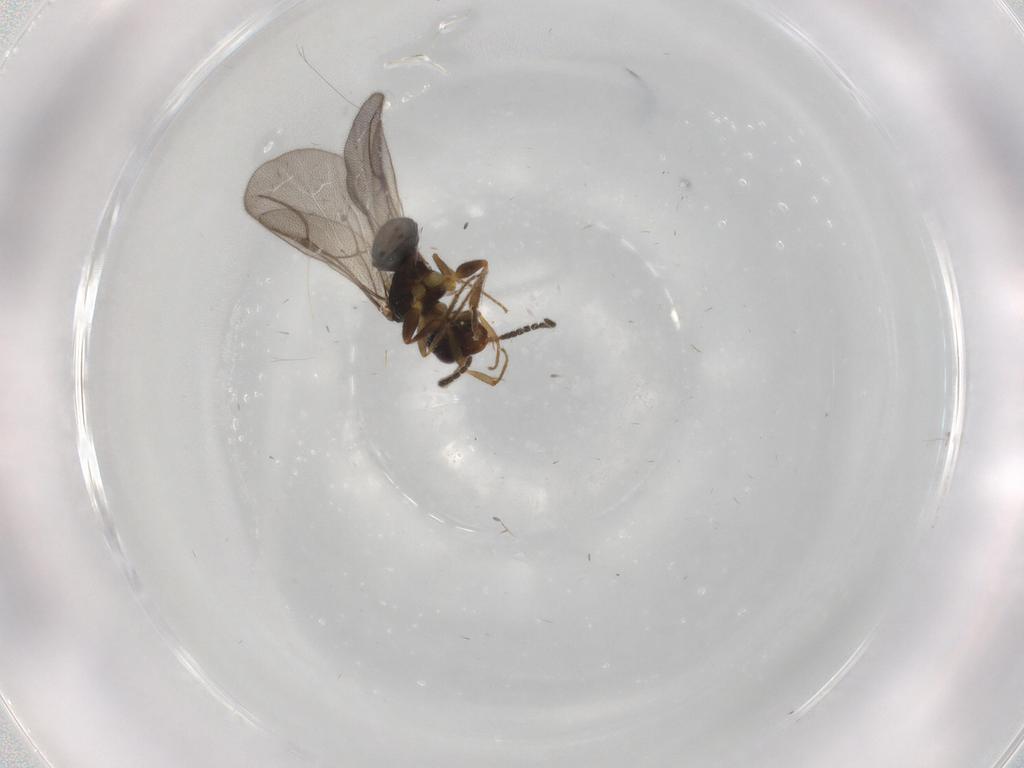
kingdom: Animalia
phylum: Arthropoda
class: Insecta
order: Hymenoptera
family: Bethylidae
